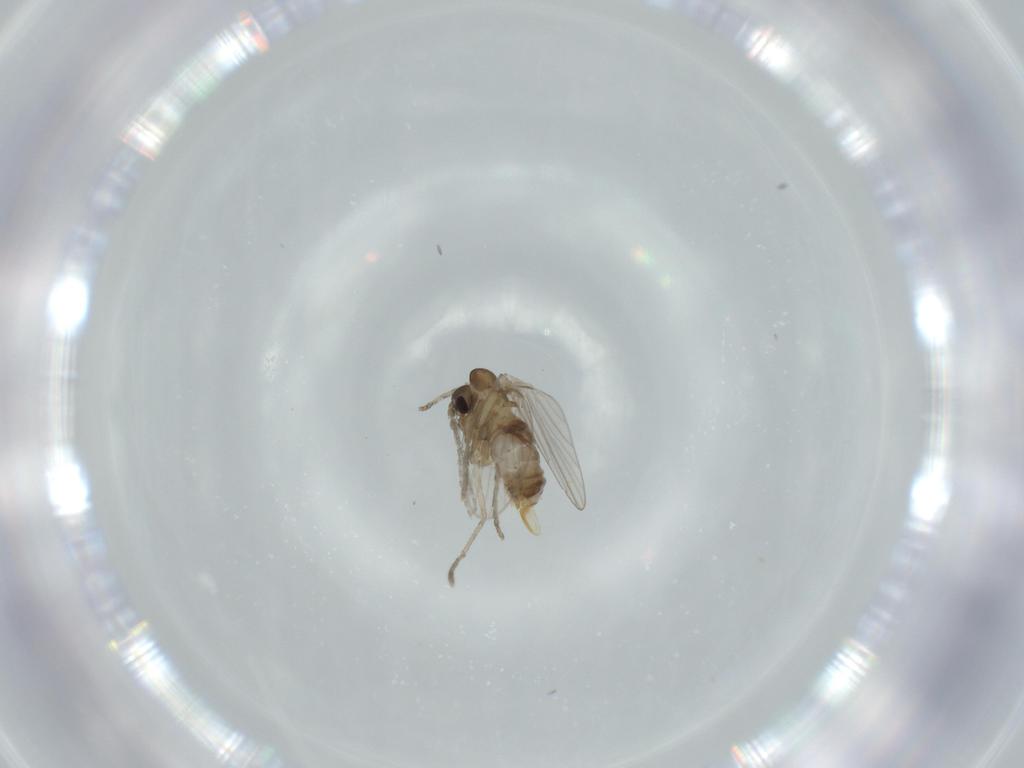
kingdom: Animalia
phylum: Arthropoda
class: Insecta
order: Diptera
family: Psychodidae
